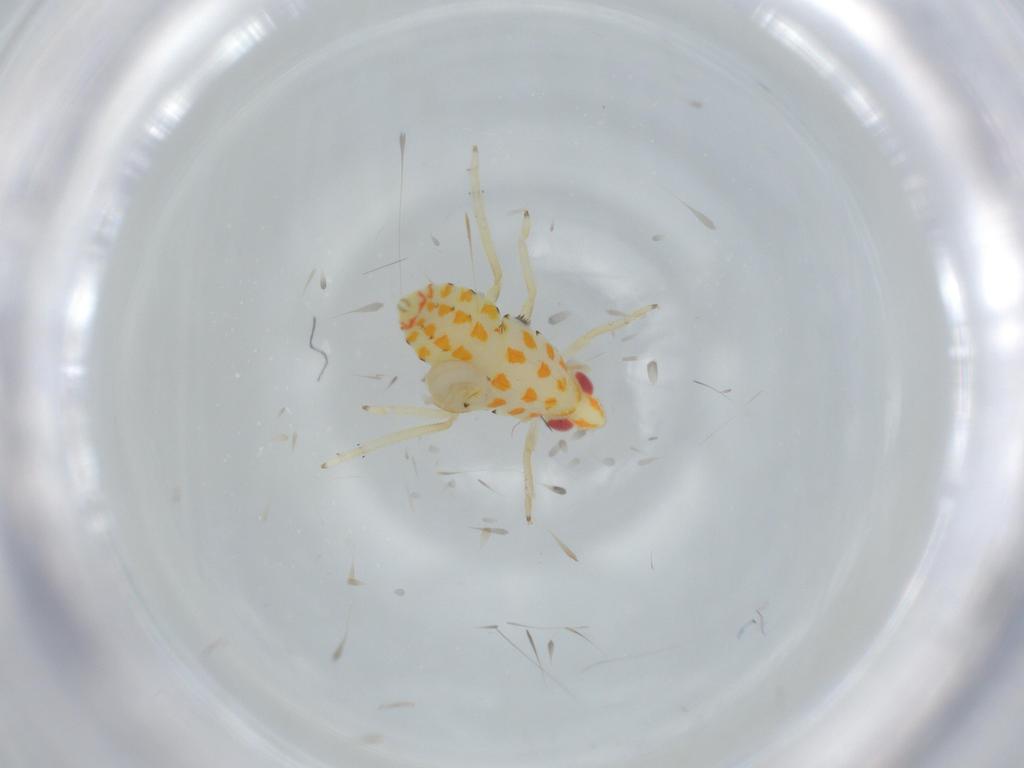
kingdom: Animalia
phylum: Arthropoda
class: Insecta
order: Hemiptera
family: Tropiduchidae
